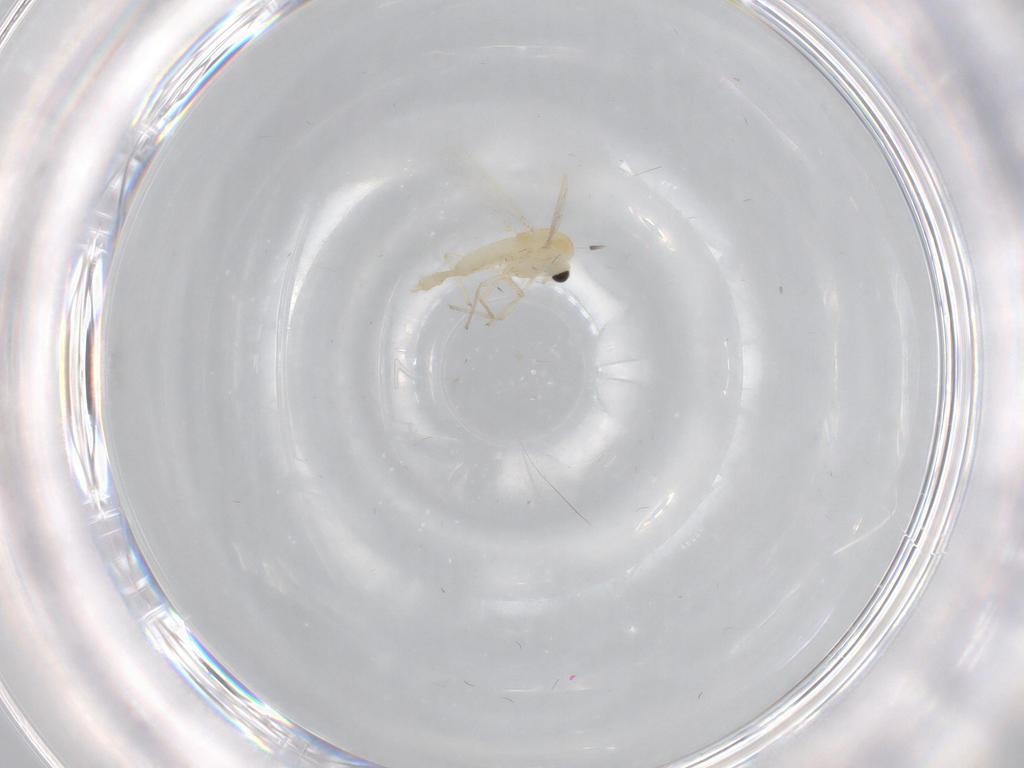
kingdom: Animalia
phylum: Arthropoda
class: Insecta
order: Diptera
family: Chironomidae
